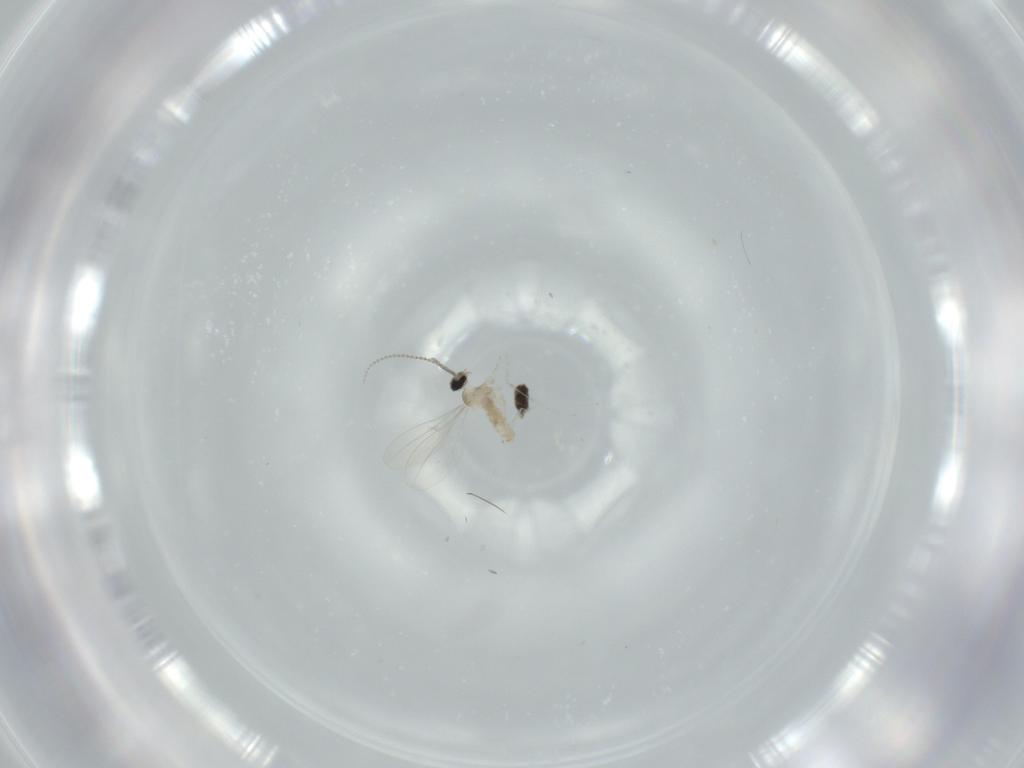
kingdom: Animalia
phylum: Arthropoda
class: Insecta
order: Diptera
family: Cecidomyiidae
